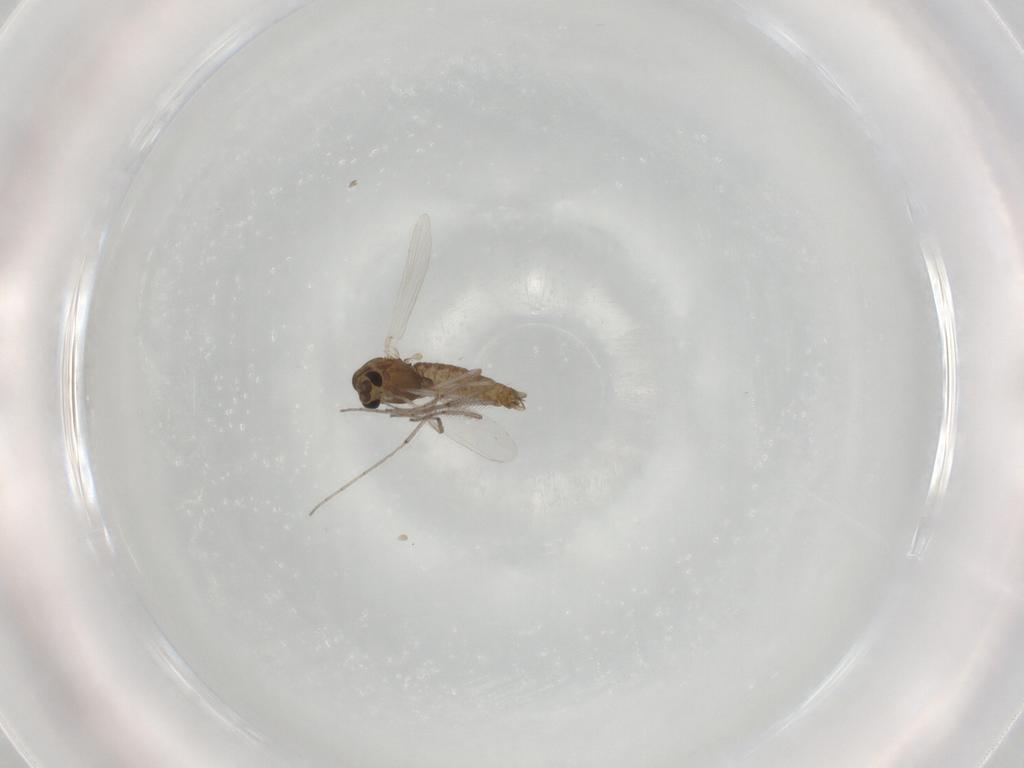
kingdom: Animalia
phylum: Arthropoda
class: Insecta
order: Diptera
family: Chironomidae
